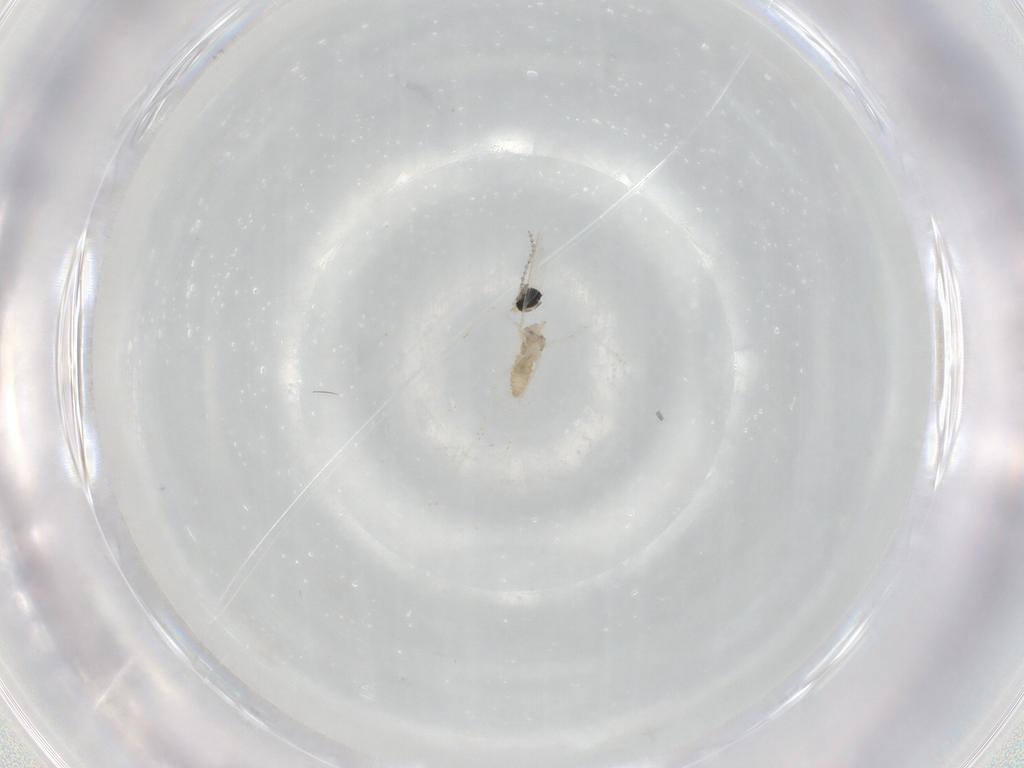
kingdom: Animalia
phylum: Arthropoda
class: Insecta
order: Diptera
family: Cecidomyiidae
